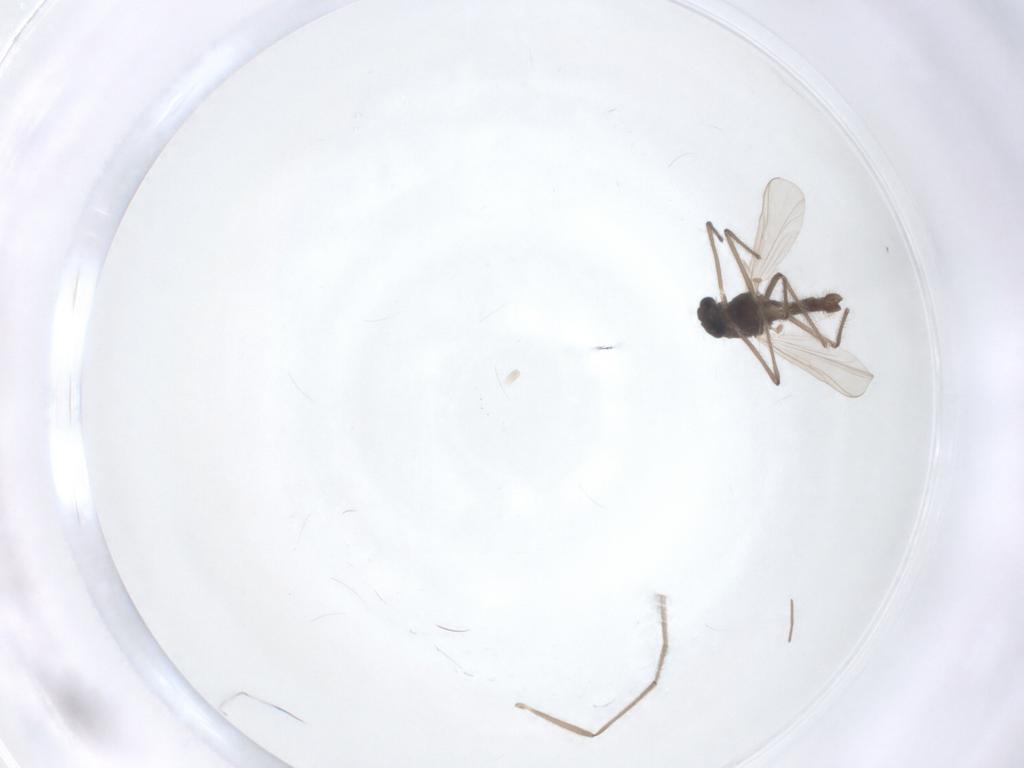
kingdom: Animalia
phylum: Arthropoda
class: Insecta
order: Diptera
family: Chironomidae
